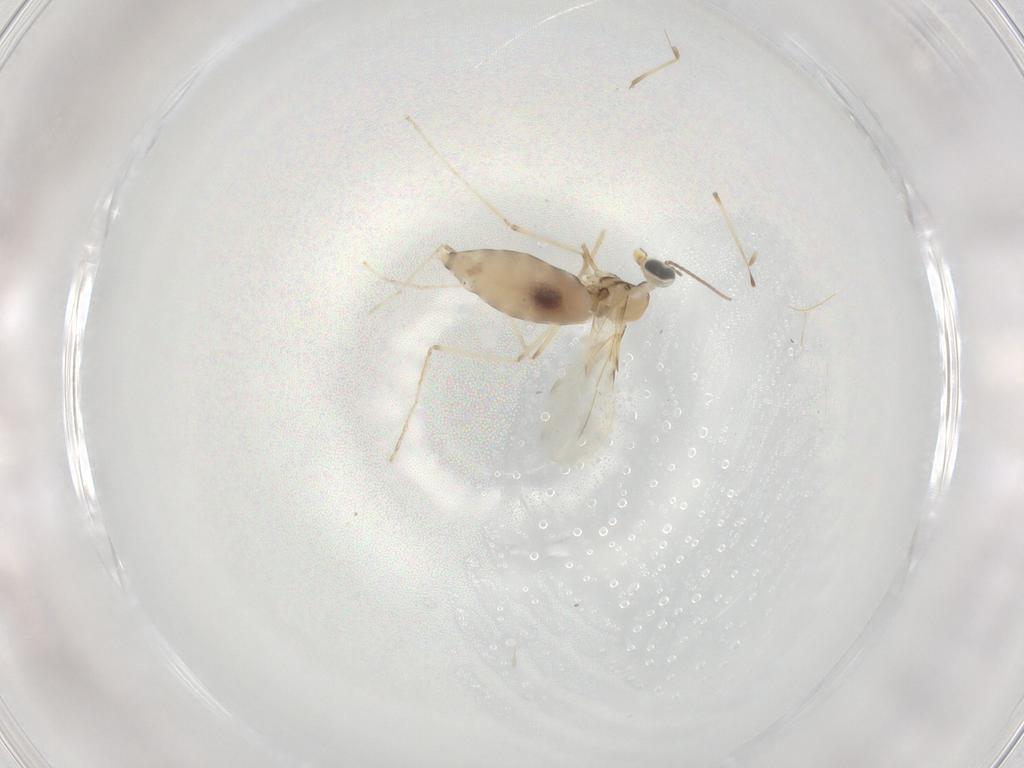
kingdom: Animalia
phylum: Arthropoda
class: Insecta
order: Diptera
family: Cecidomyiidae
